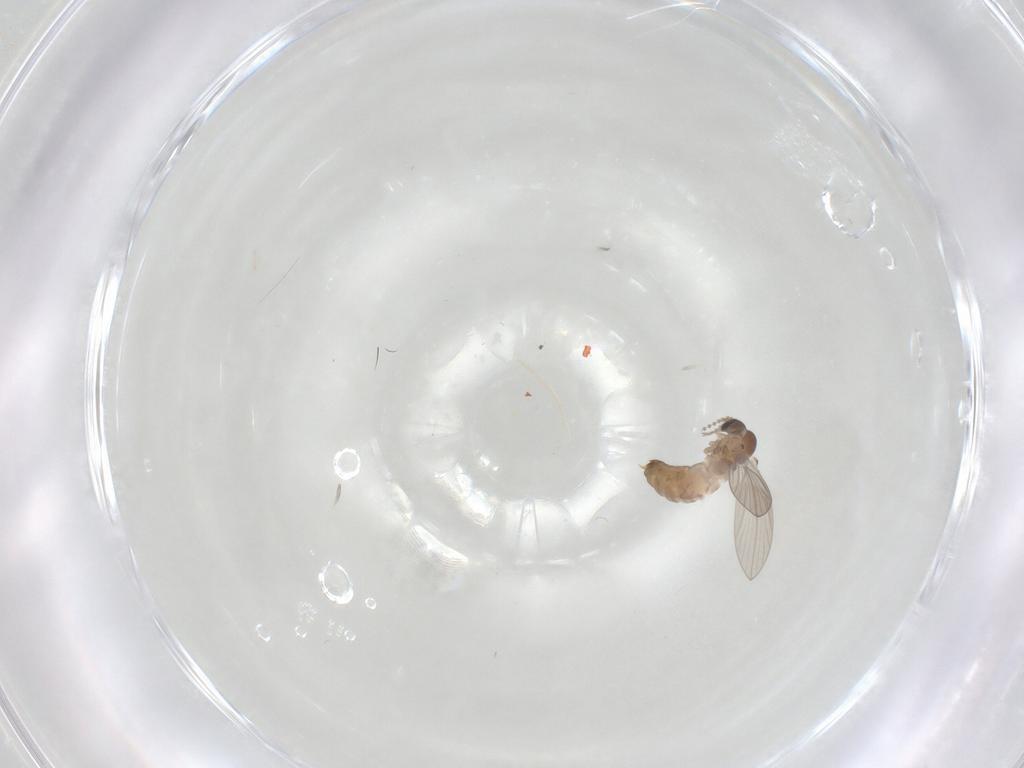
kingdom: Animalia
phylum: Arthropoda
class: Insecta
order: Diptera
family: Psychodidae
